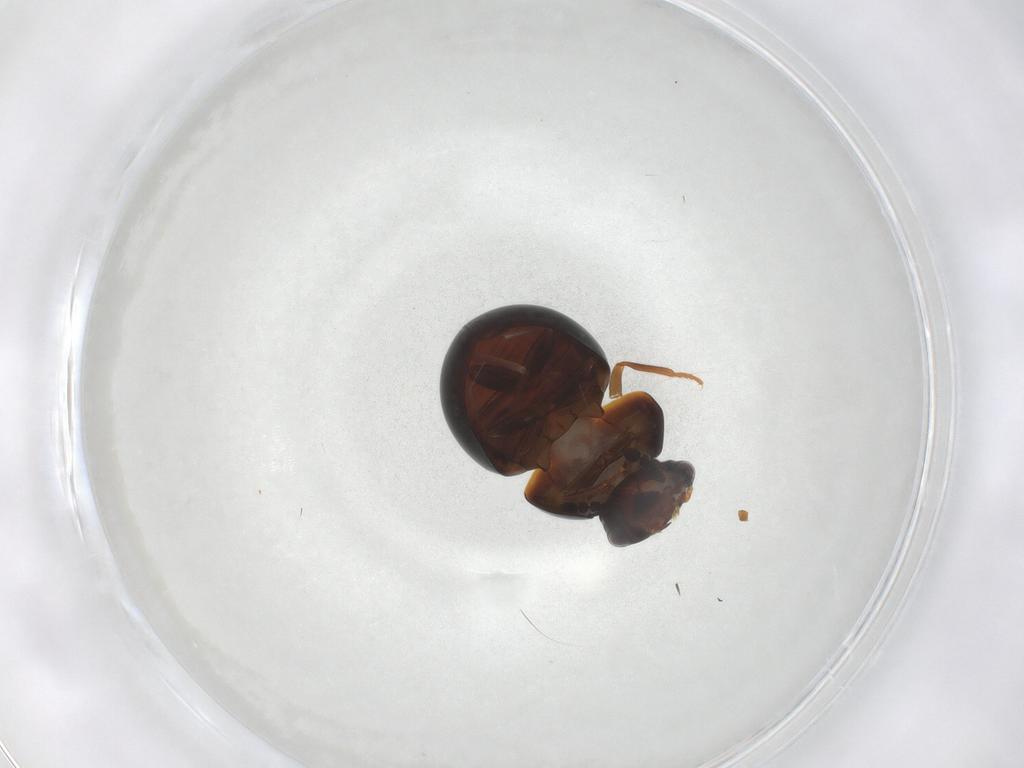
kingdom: Animalia
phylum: Arthropoda
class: Insecta
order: Coleoptera
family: Leiodidae
